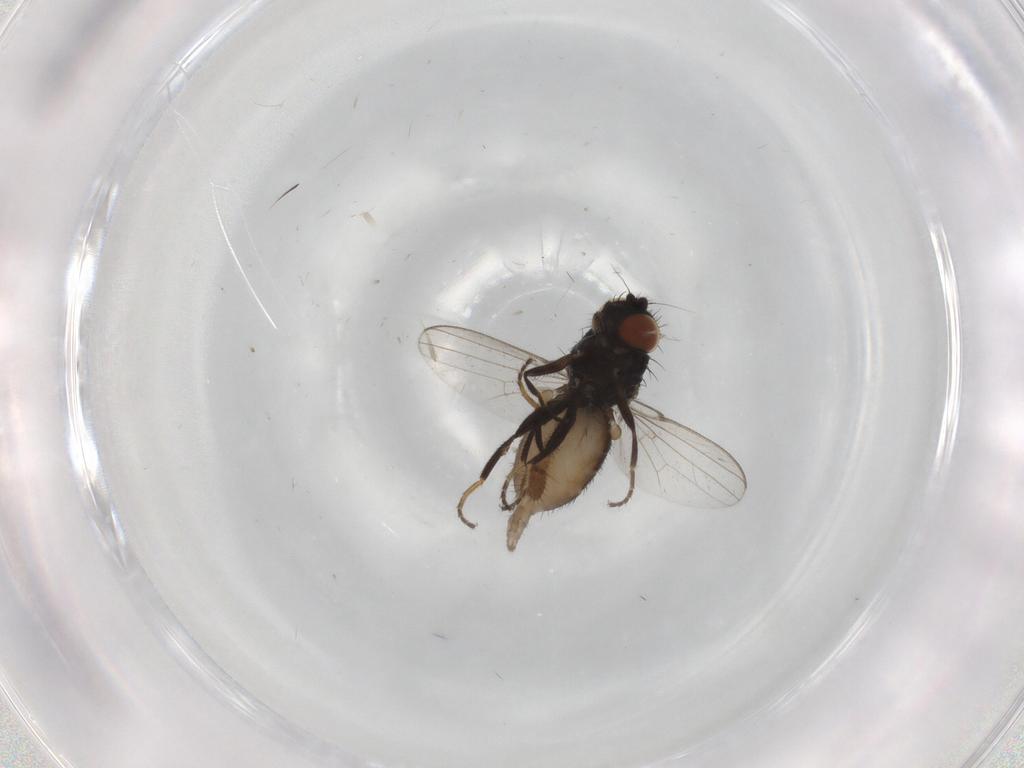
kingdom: Animalia
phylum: Arthropoda
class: Insecta
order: Diptera
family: Milichiidae
